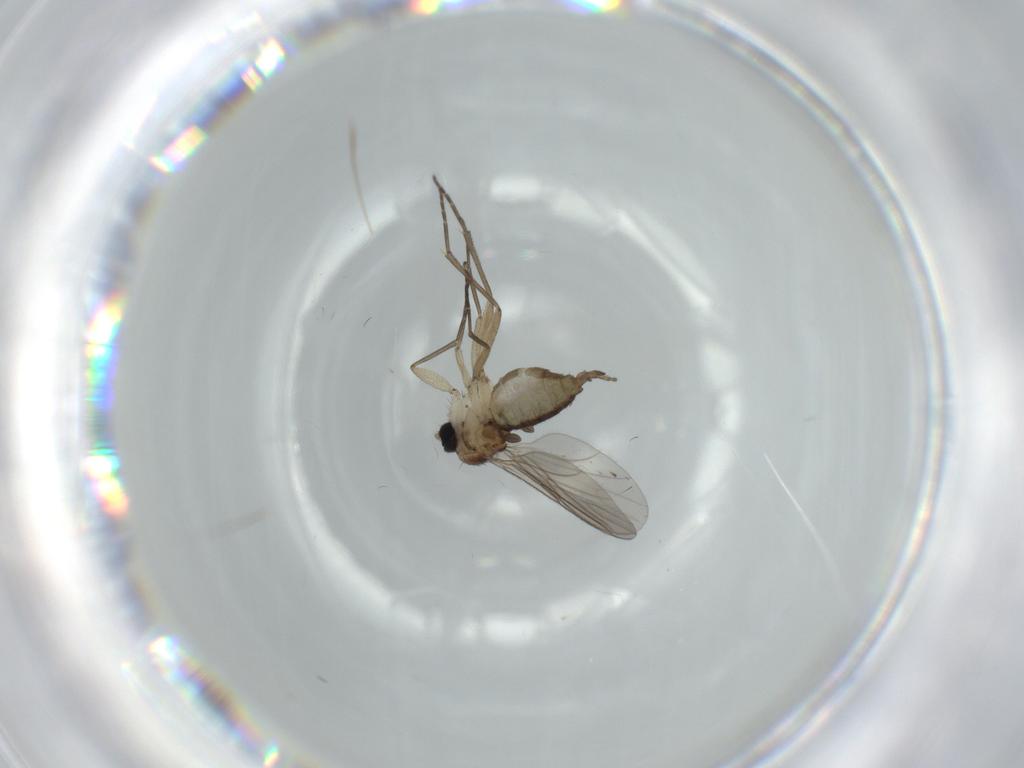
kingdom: Animalia
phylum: Arthropoda
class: Insecta
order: Diptera
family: Sciaridae
